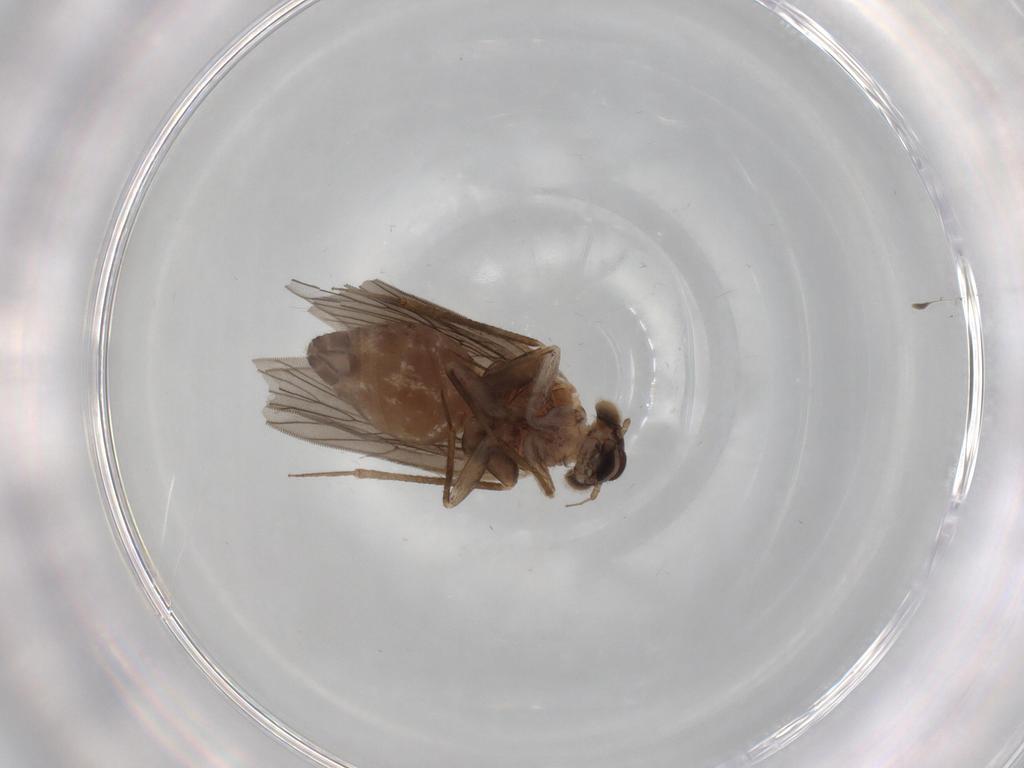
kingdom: Animalia
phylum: Arthropoda
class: Insecta
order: Psocodea
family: Lepidopsocidae
